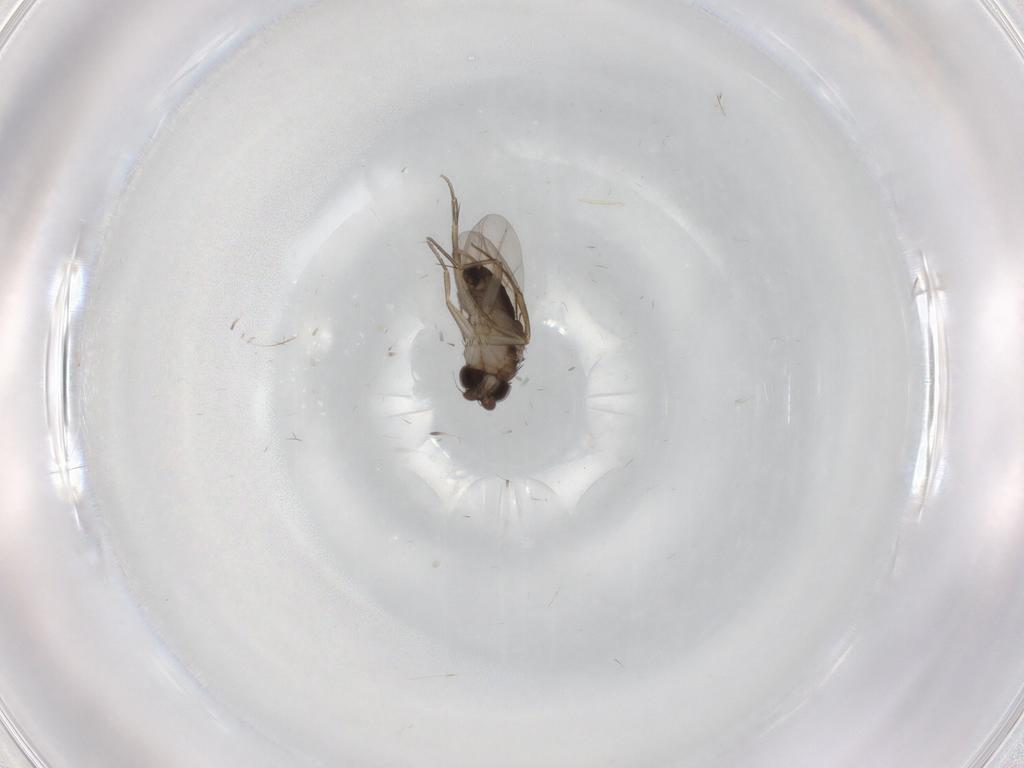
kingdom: Animalia
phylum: Arthropoda
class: Insecta
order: Diptera
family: Phoridae
